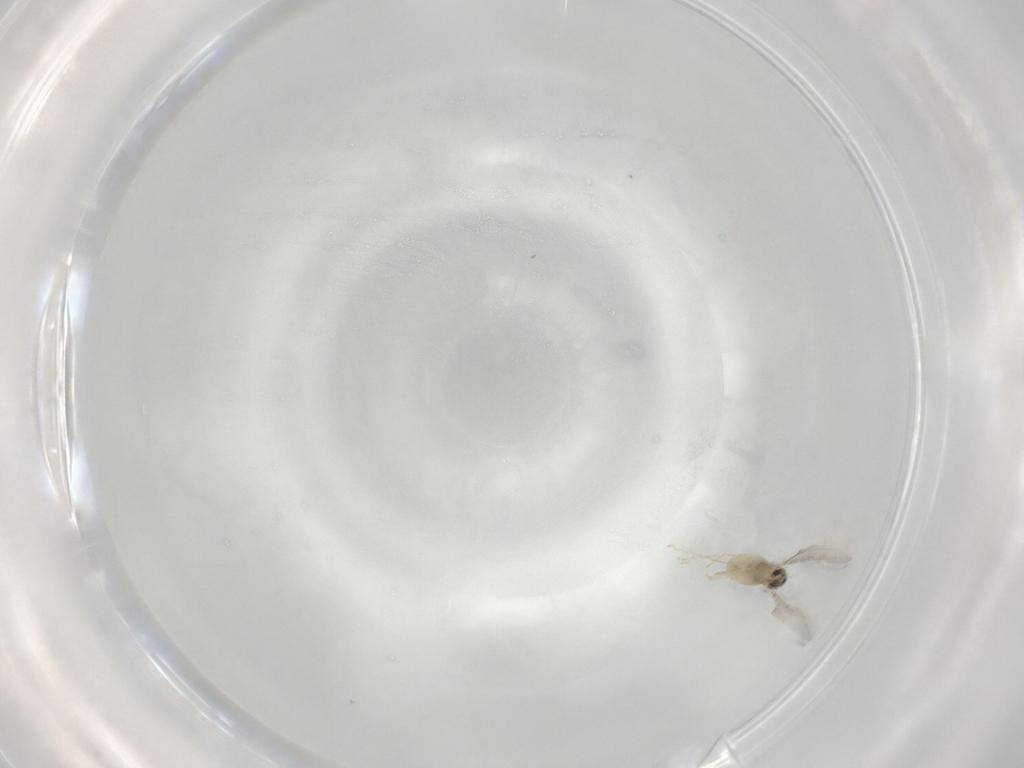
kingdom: Animalia
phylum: Arthropoda
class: Insecta
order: Diptera
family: Cecidomyiidae
